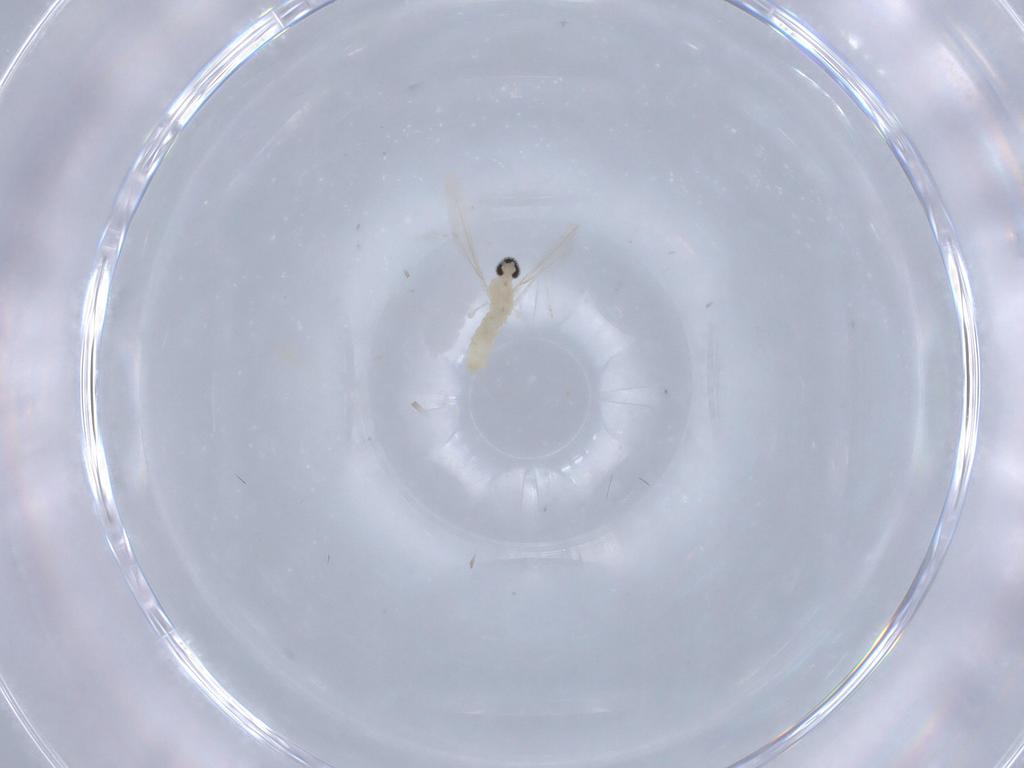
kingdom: Animalia
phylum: Arthropoda
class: Insecta
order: Diptera
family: Cecidomyiidae
